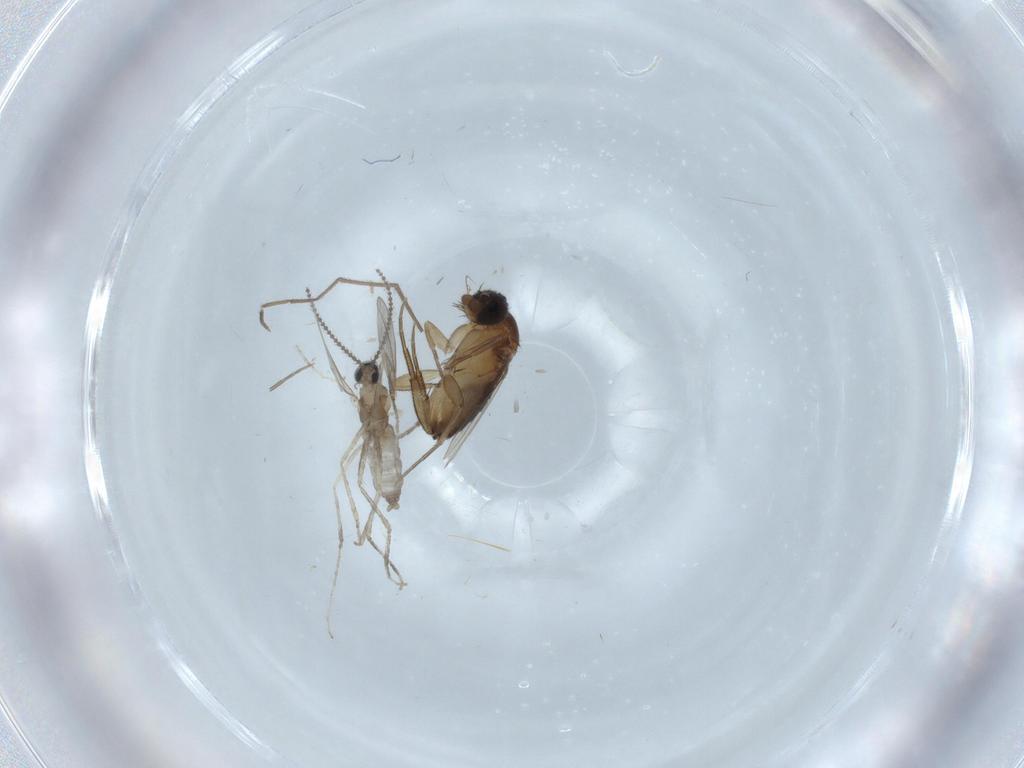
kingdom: Animalia
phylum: Arthropoda
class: Insecta
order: Diptera
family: Phoridae
